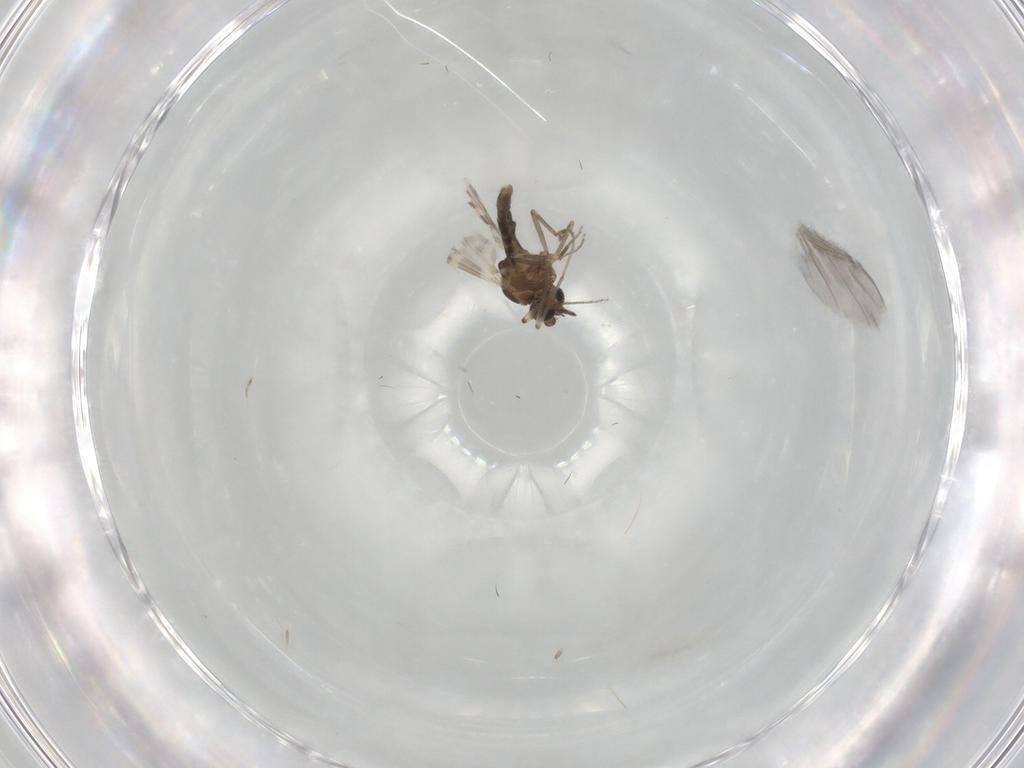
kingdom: Animalia
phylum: Arthropoda
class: Insecta
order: Diptera
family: Ceratopogonidae
